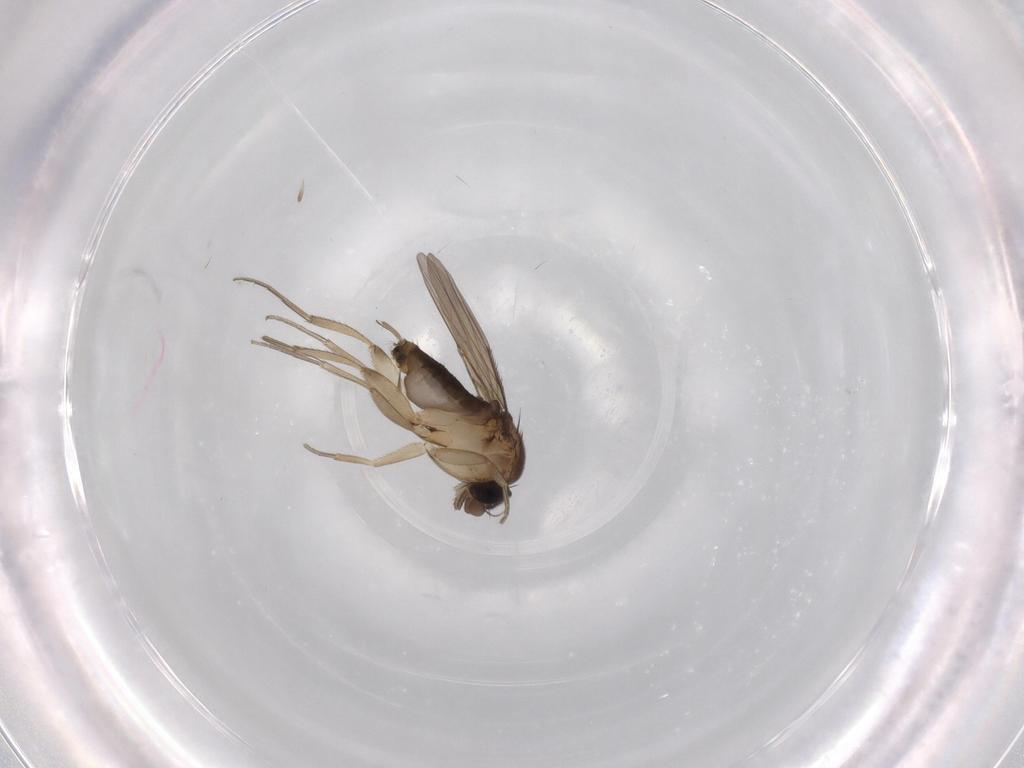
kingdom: Animalia
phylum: Arthropoda
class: Insecta
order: Diptera
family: Phoridae
